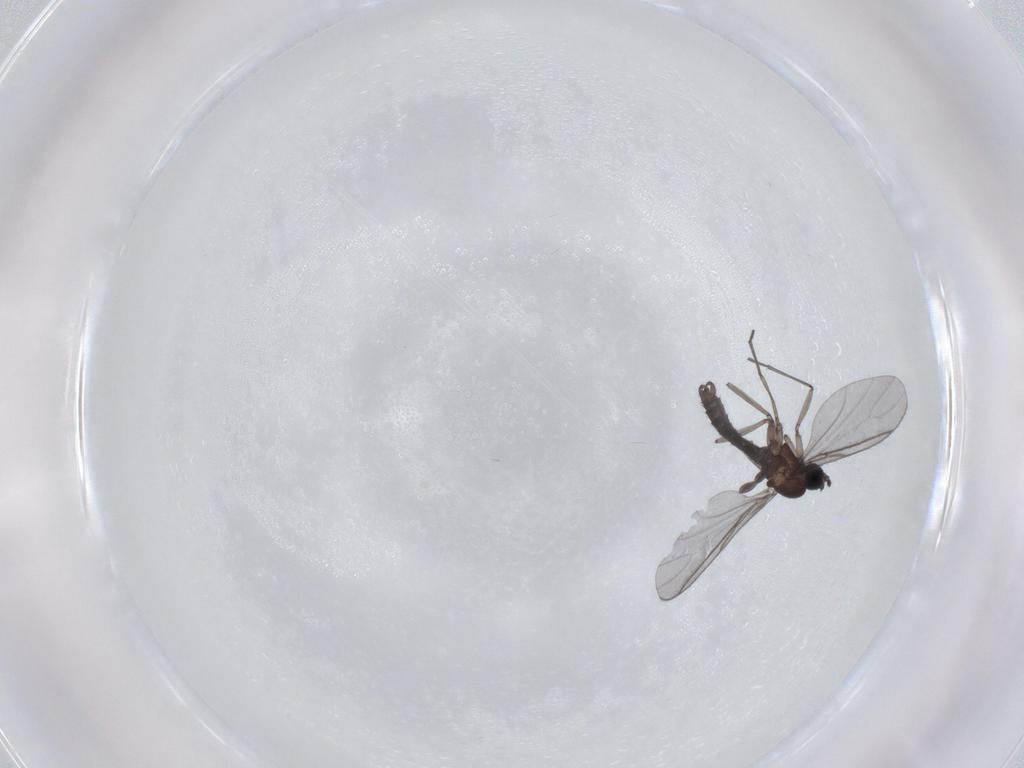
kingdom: Animalia
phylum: Arthropoda
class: Insecta
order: Diptera
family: Sciaridae
